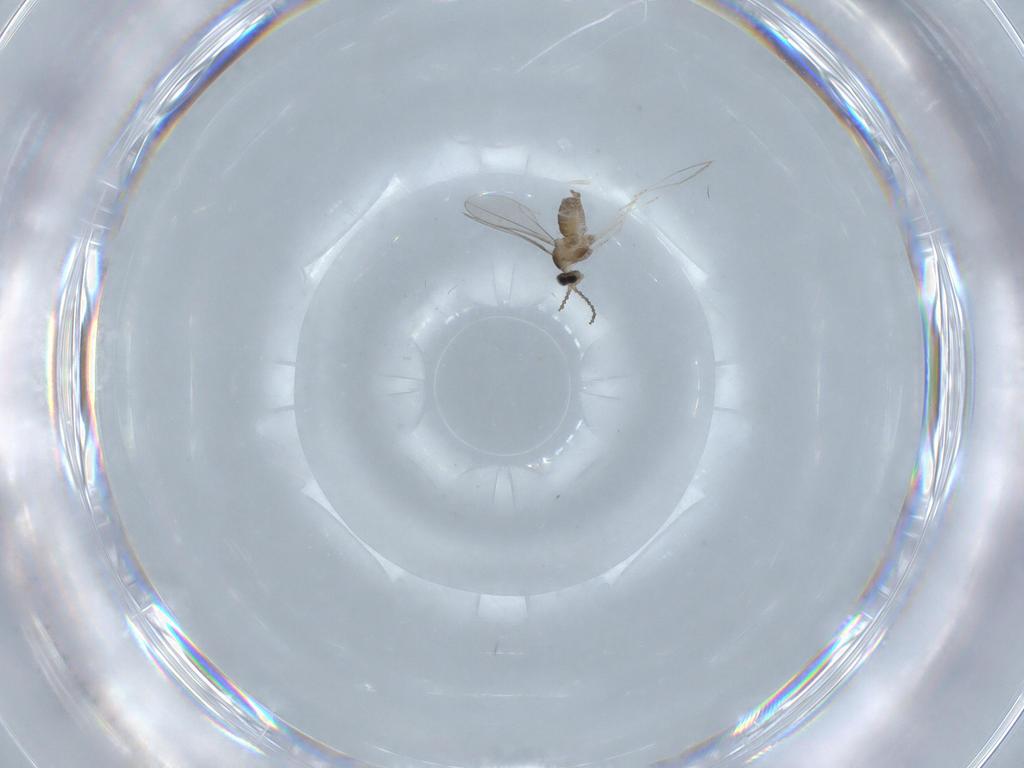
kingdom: Animalia
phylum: Arthropoda
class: Insecta
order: Diptera
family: Cecidomyiidae
